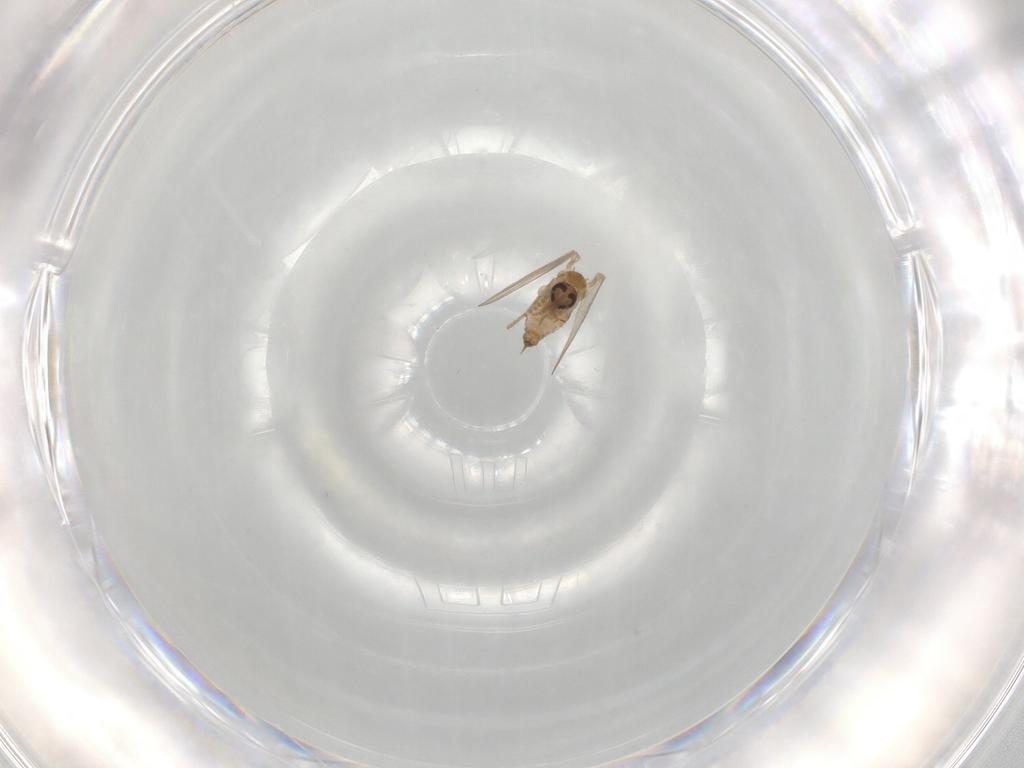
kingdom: Animalia
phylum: Arthropoda
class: Insecta
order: Diptera
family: Psychodidae
